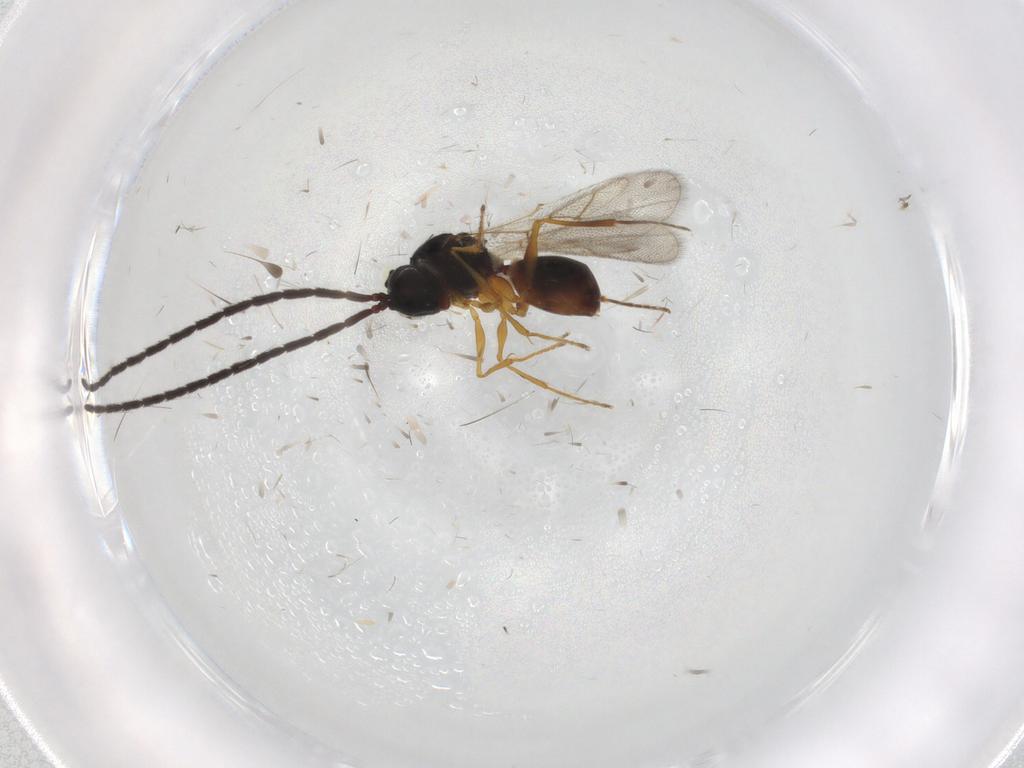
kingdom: Animalia
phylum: Arthropoda
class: Insecta
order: Hymenoptera
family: Figitidae
